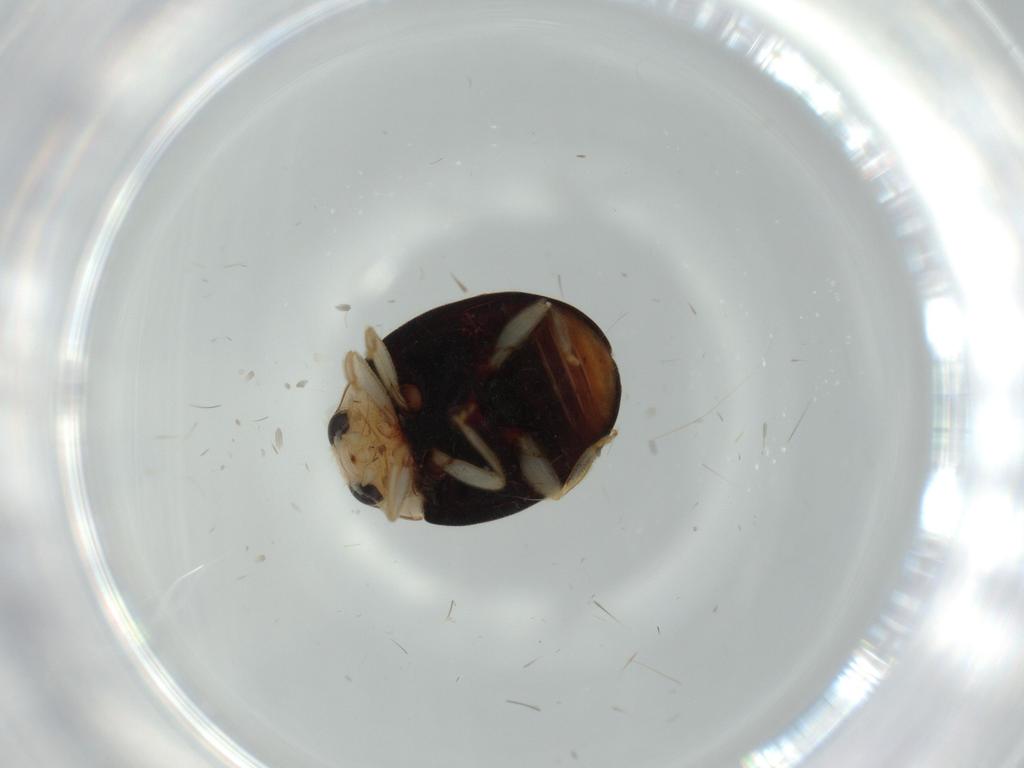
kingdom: Animalia
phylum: Arthropoda
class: Insecta
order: Coleoptera
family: Corylophidae
